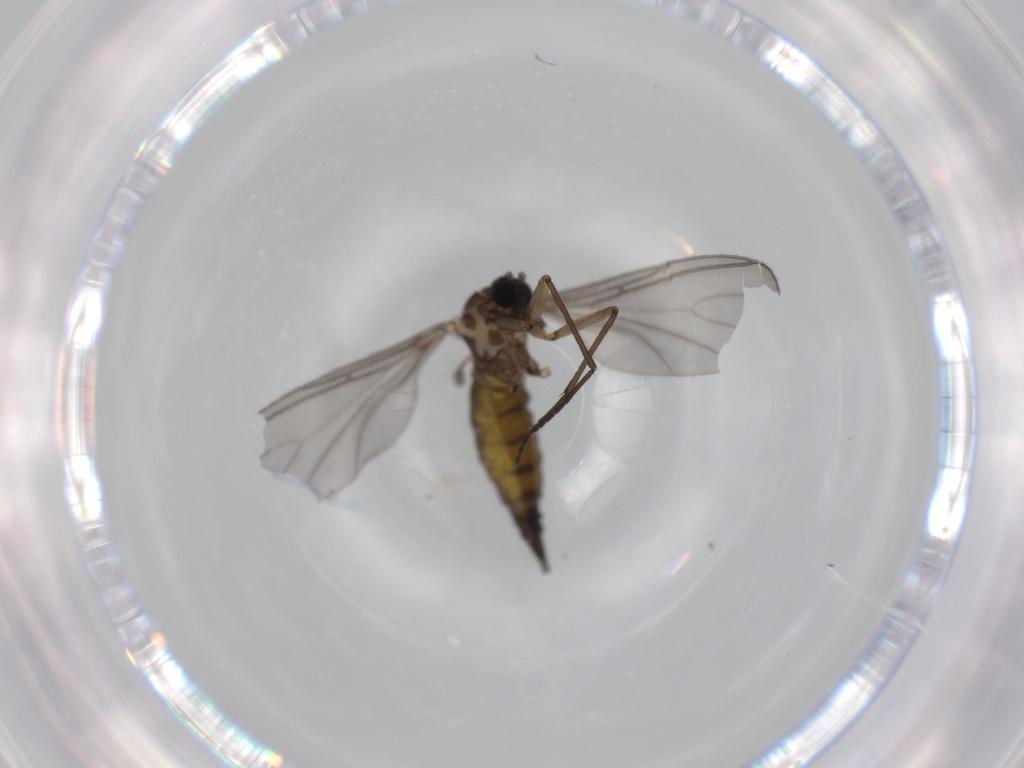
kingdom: Animalia
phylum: Arthropoda
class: Insecta
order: Diptera
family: Sciaridae
